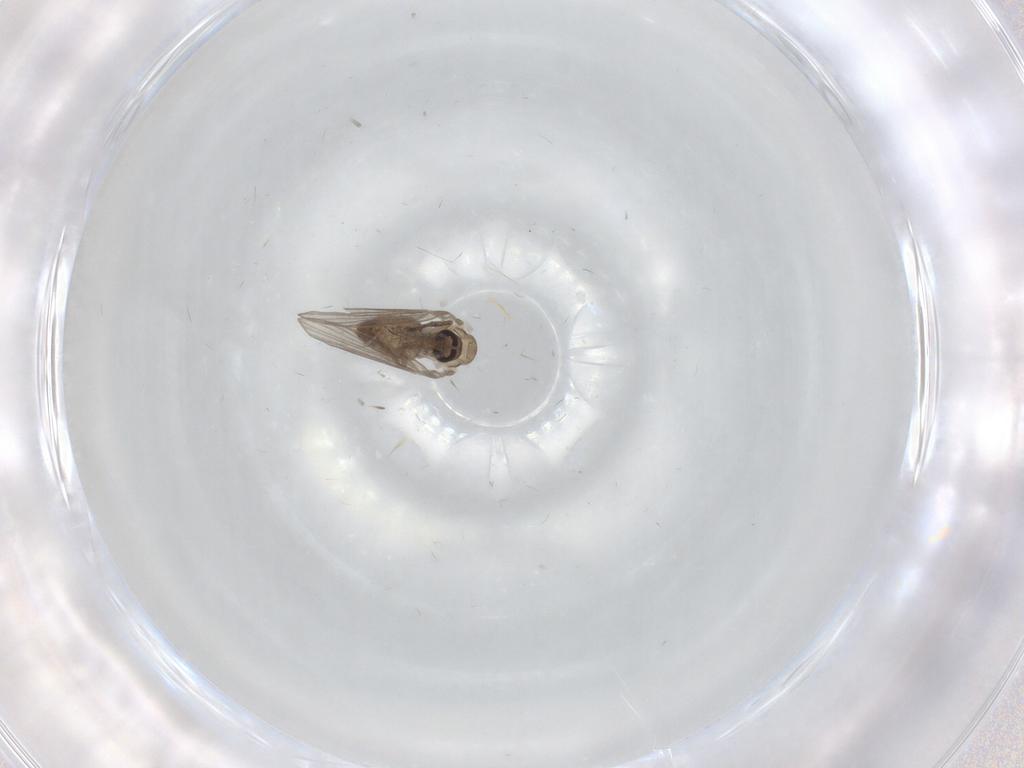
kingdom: Animalia
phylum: Arthropoda
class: Insecta
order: Diptera
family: Psychodidae
